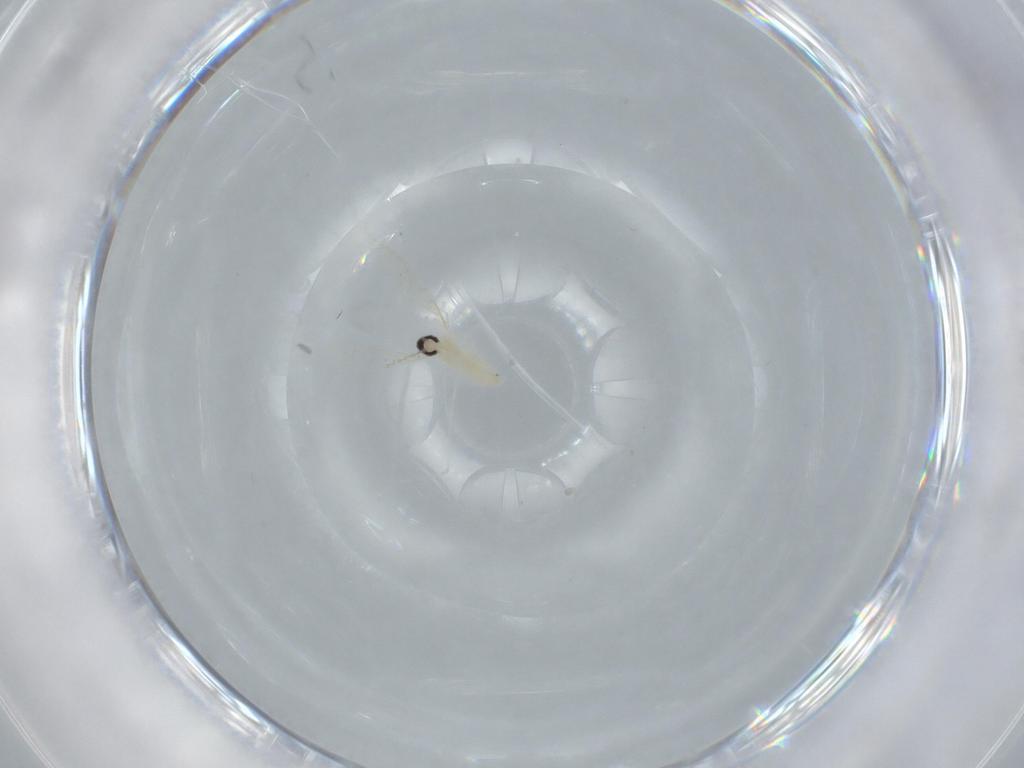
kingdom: Animalia
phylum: Arthropoda
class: Insecta
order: Diptera
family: Cecidomyiidae
